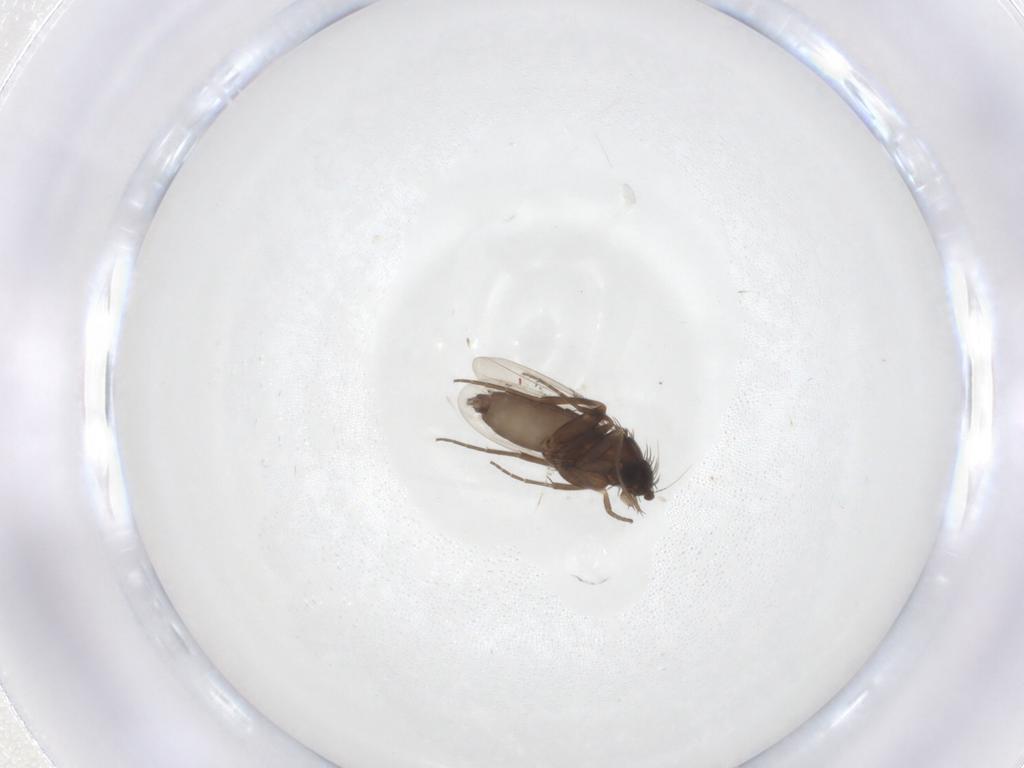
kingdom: Animalia
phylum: Arthropoda
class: Insecta
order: Diptera
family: Phoridae
